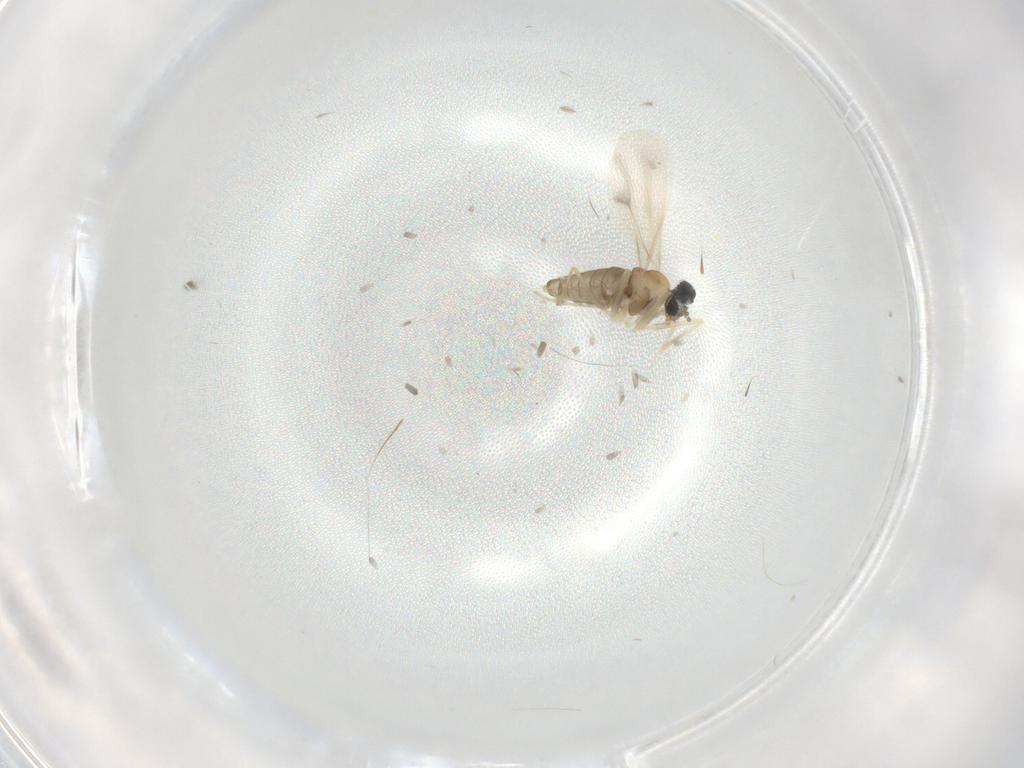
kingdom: Animalia
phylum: Arthropoda
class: Insecta
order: Diptera
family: Cecidomyiidae
